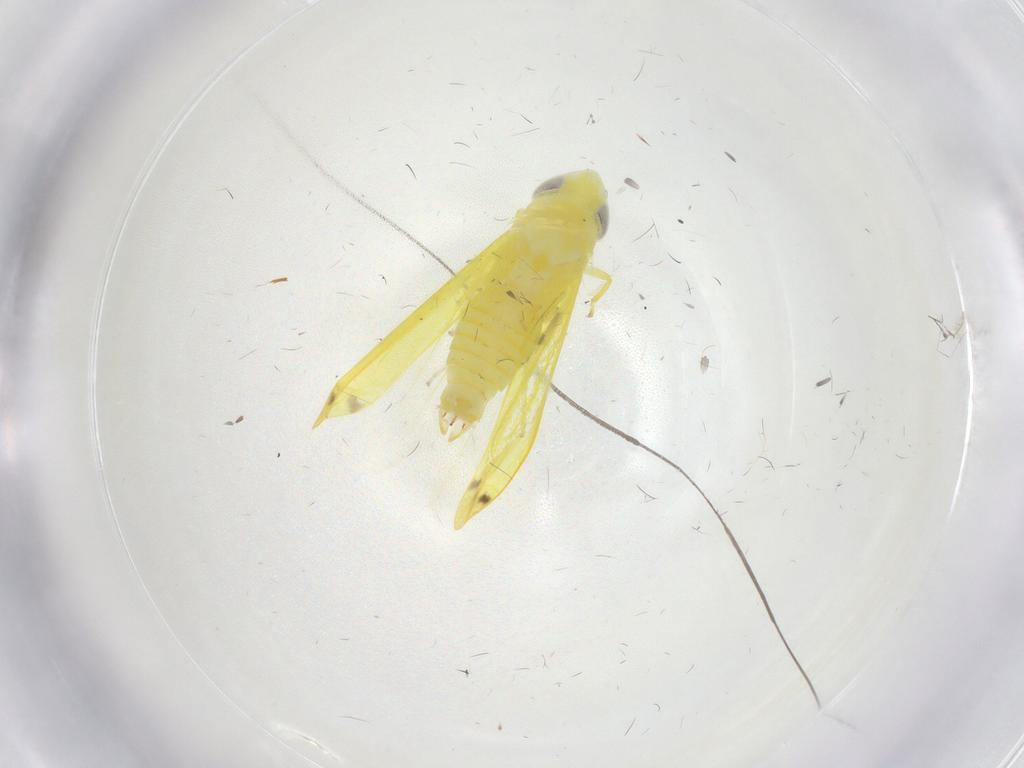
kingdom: Animalia
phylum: Arthropoda
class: Insecta
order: Hemiptera
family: Cicadellidae
